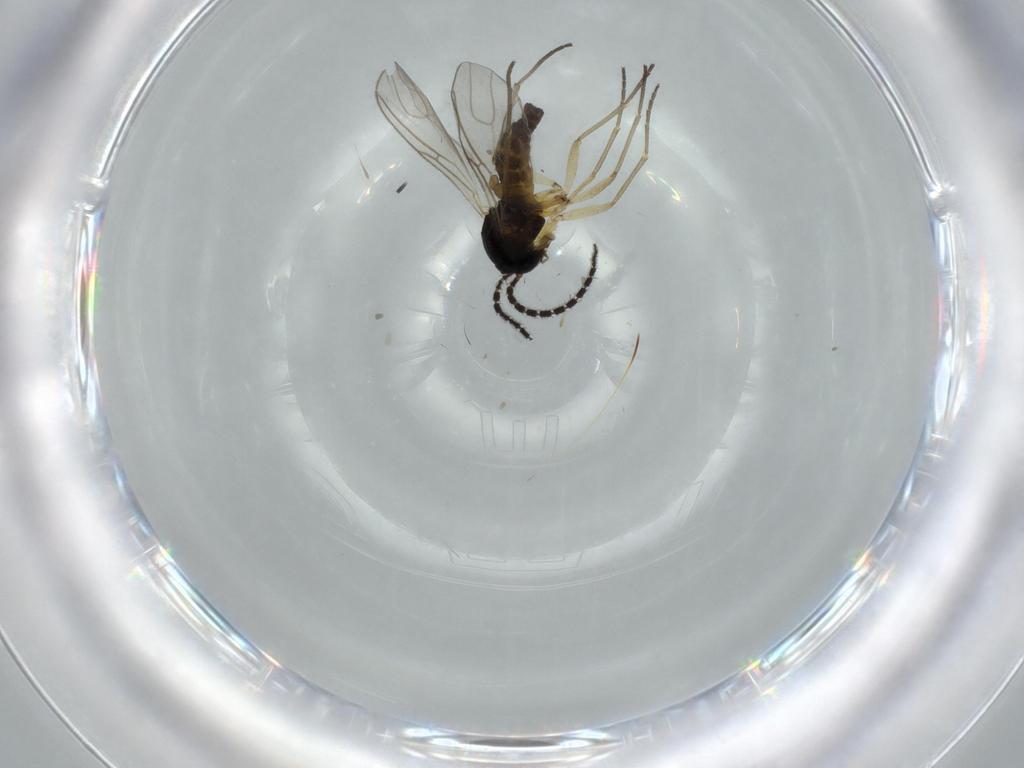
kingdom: Animalia
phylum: Arthropoda
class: Insecta
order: Diptera
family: Sciaridae
